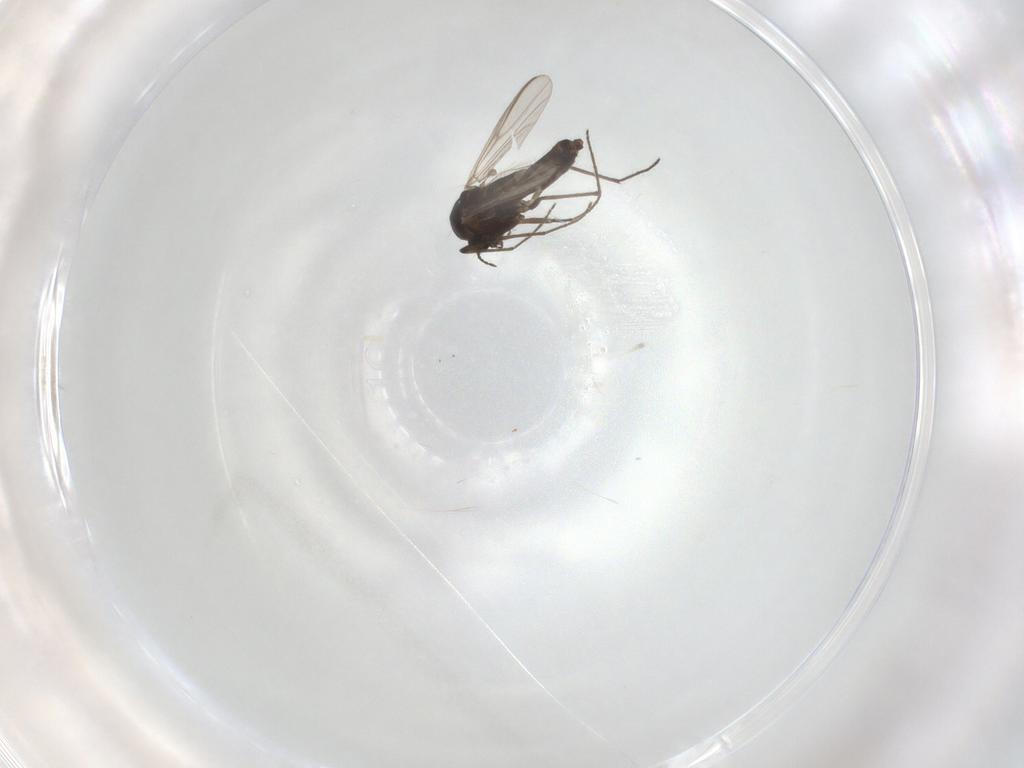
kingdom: Animalia
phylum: Arthropoda
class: Insecta
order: Diptera
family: Chironomidae
